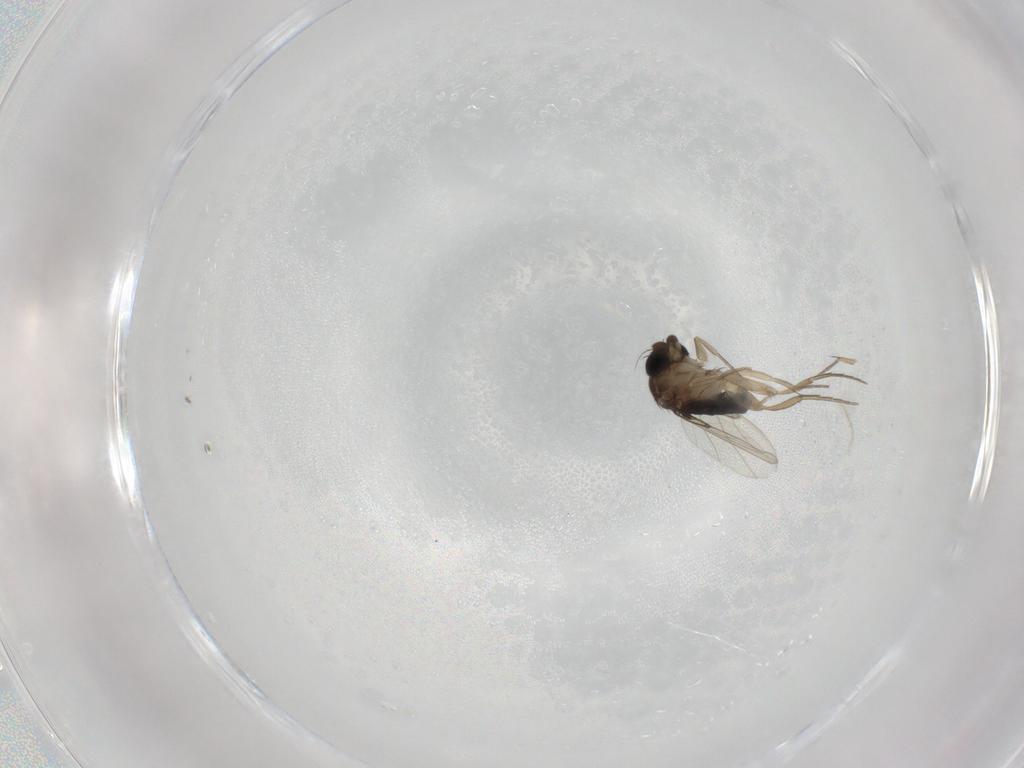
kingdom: Animalia
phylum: Arthropoda
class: Insecta
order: Diptera
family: Phoridae
